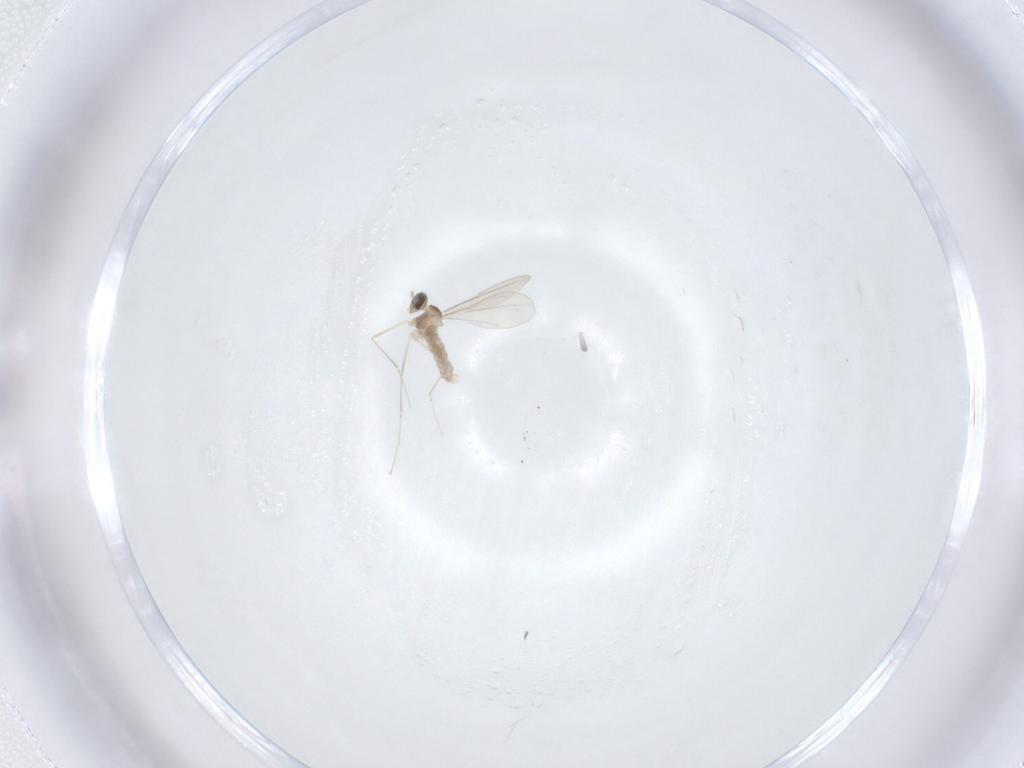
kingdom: Animalia
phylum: Arthropoda
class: Insecta
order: Diptera
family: Cecidomyiidae
